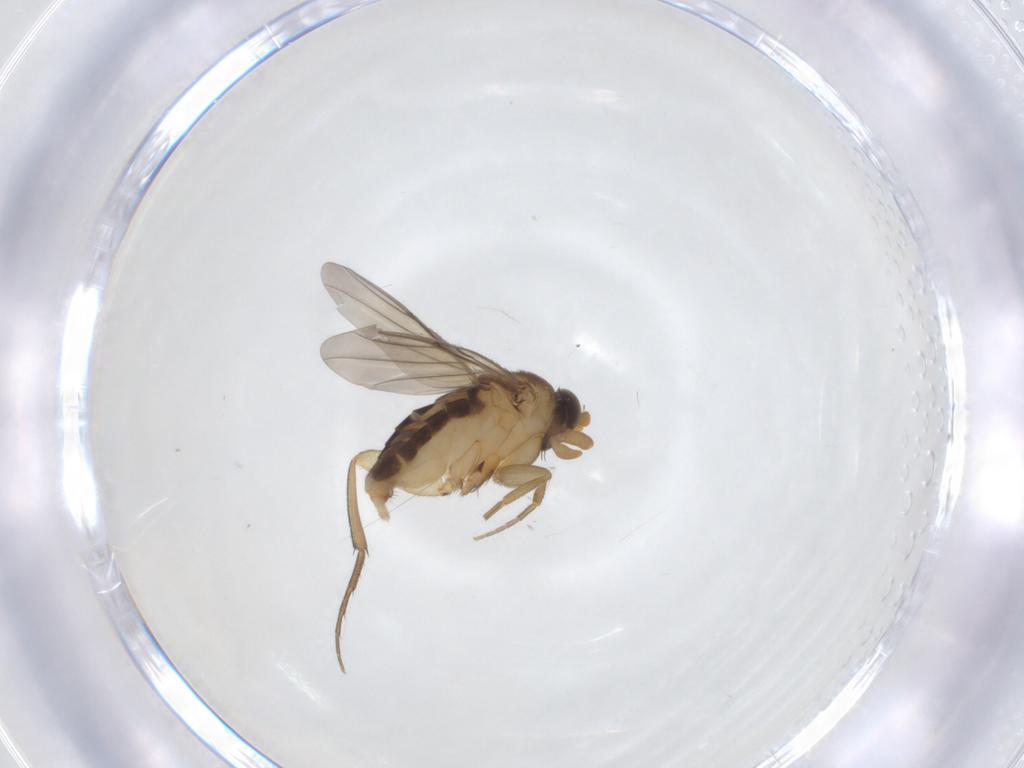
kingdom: Animalia
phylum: Arthropoda
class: Insecta
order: Diptera
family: Phoridae
